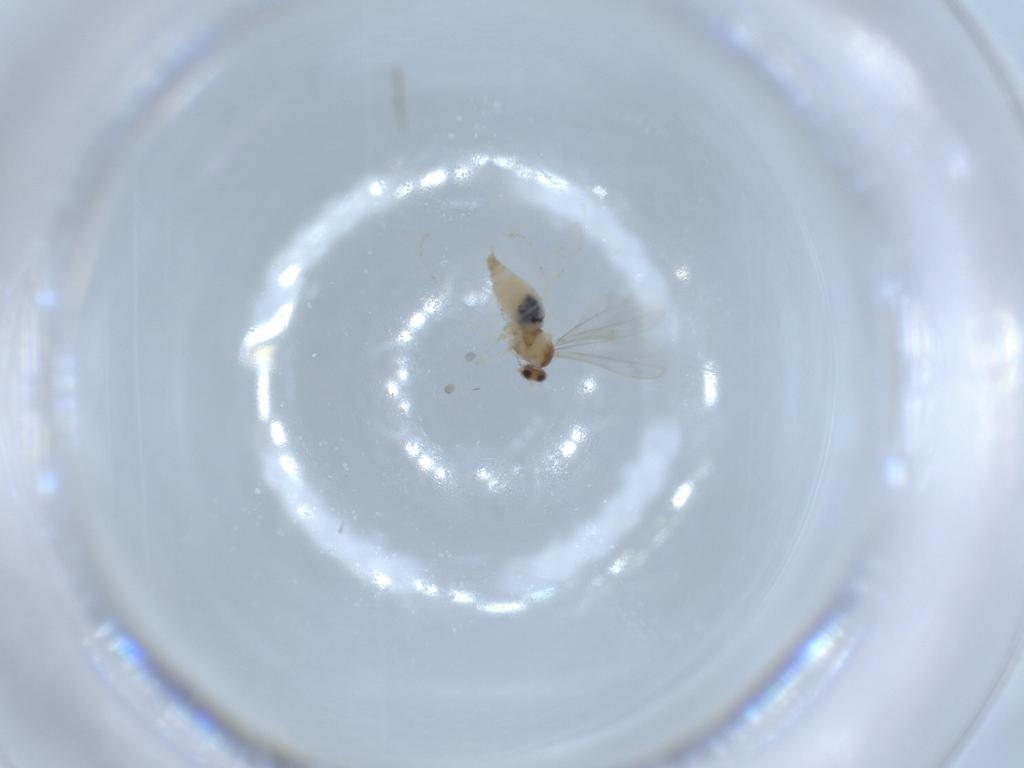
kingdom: Animalia
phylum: Arthropoda
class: Insecta
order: Diptera
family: Cecidomyiidae
